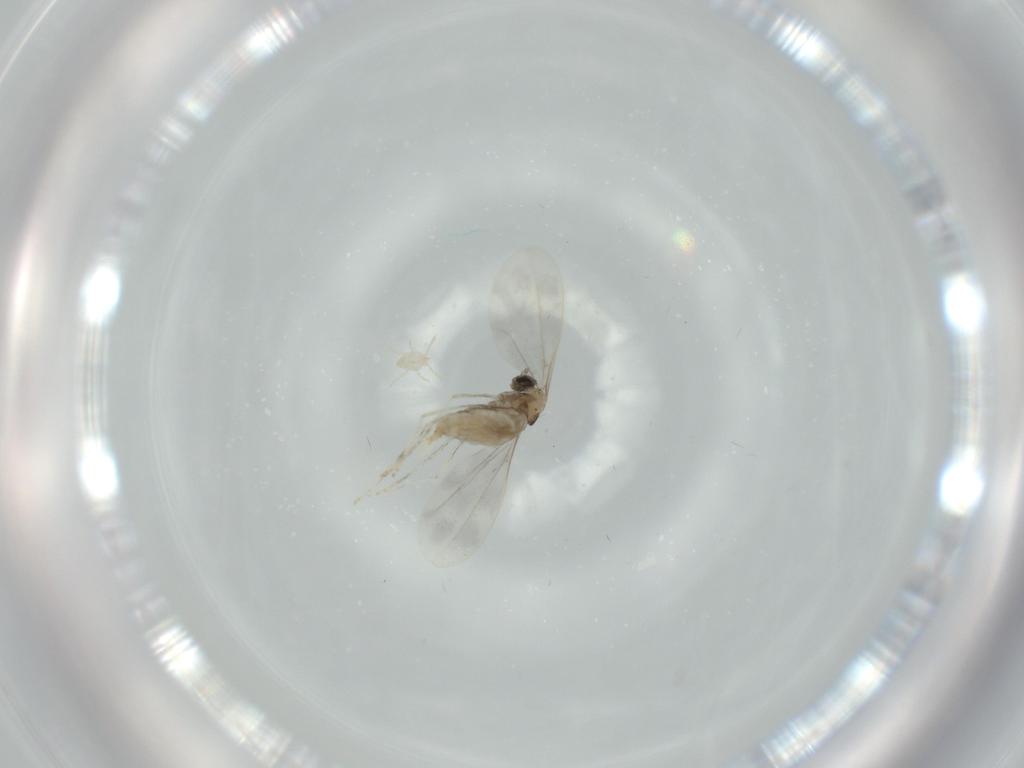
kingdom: Animalia
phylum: Arthropoda
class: Insecta
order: Diptera
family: Cecidomyiidae
